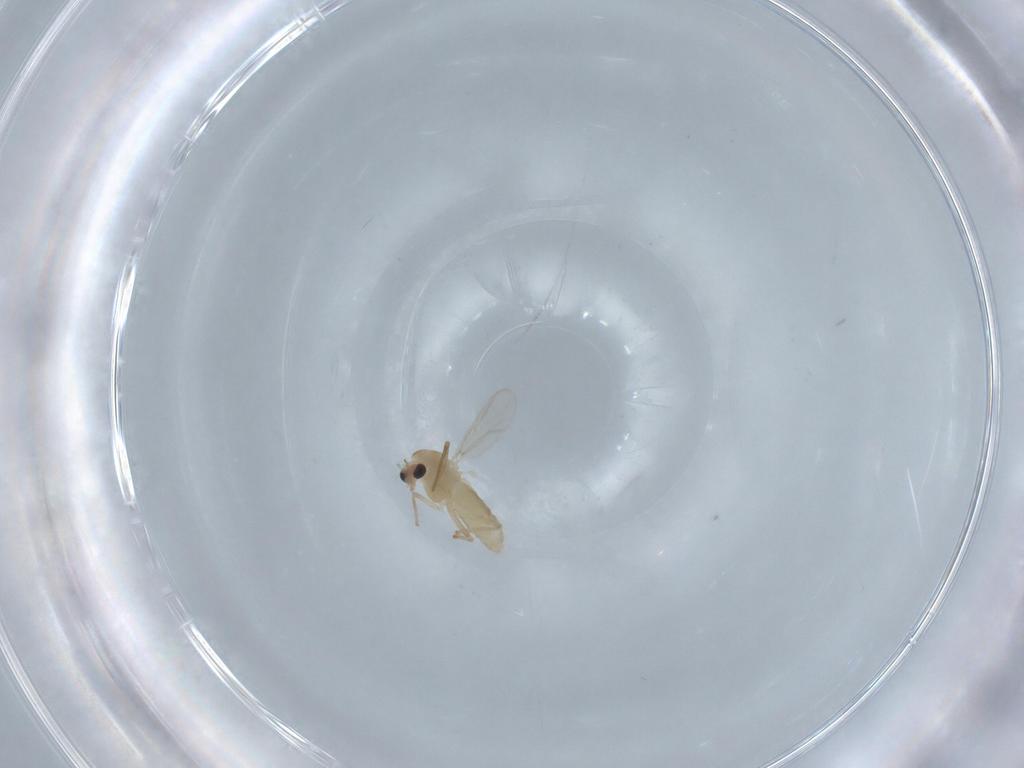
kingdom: Animalia
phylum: Arthropoda
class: Insecta
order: Diptera
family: Chironomidae
